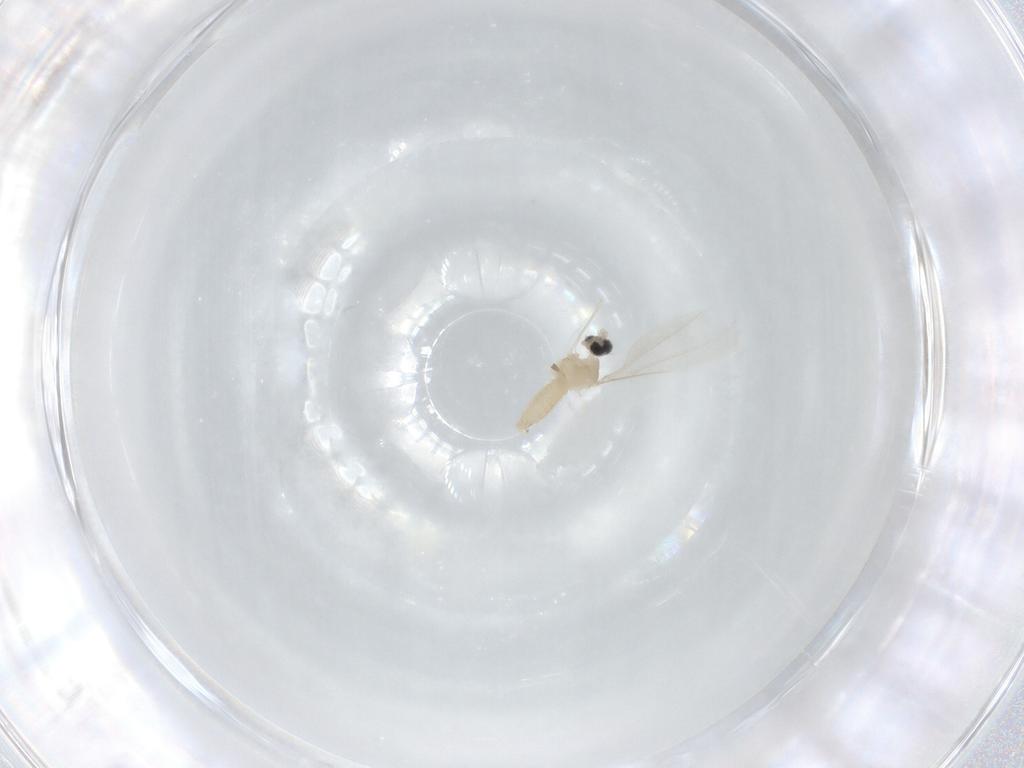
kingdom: Animalia
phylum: Arthropoda
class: Insecta
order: Diptera
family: Cecidomyiidae
